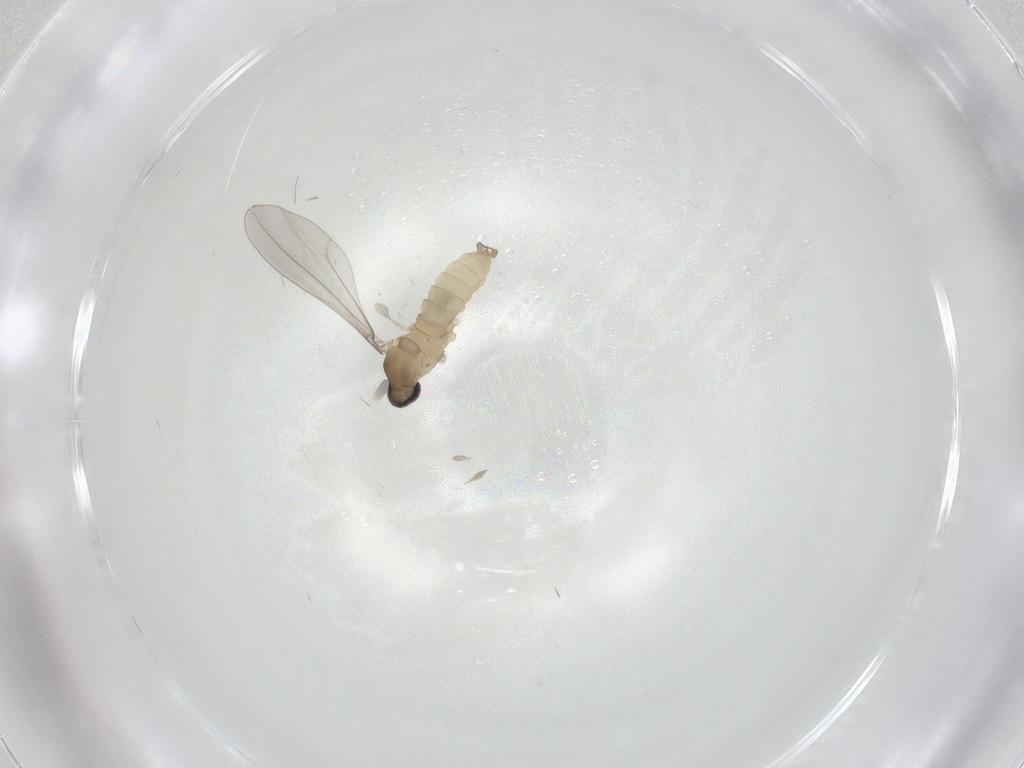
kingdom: Animalia
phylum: Arthropoda
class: Insecta
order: Diptera
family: Cecidomyiidae
